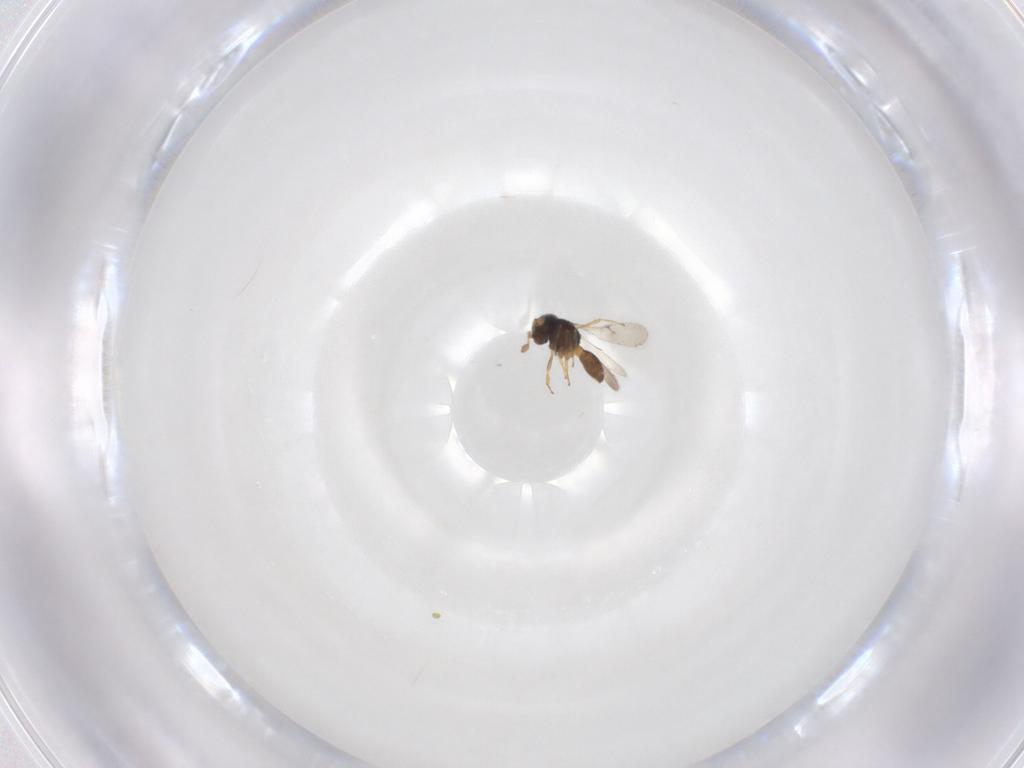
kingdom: Animalia
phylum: Arthropoda
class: Insecta
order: Hymenoptera
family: Scelionidae
